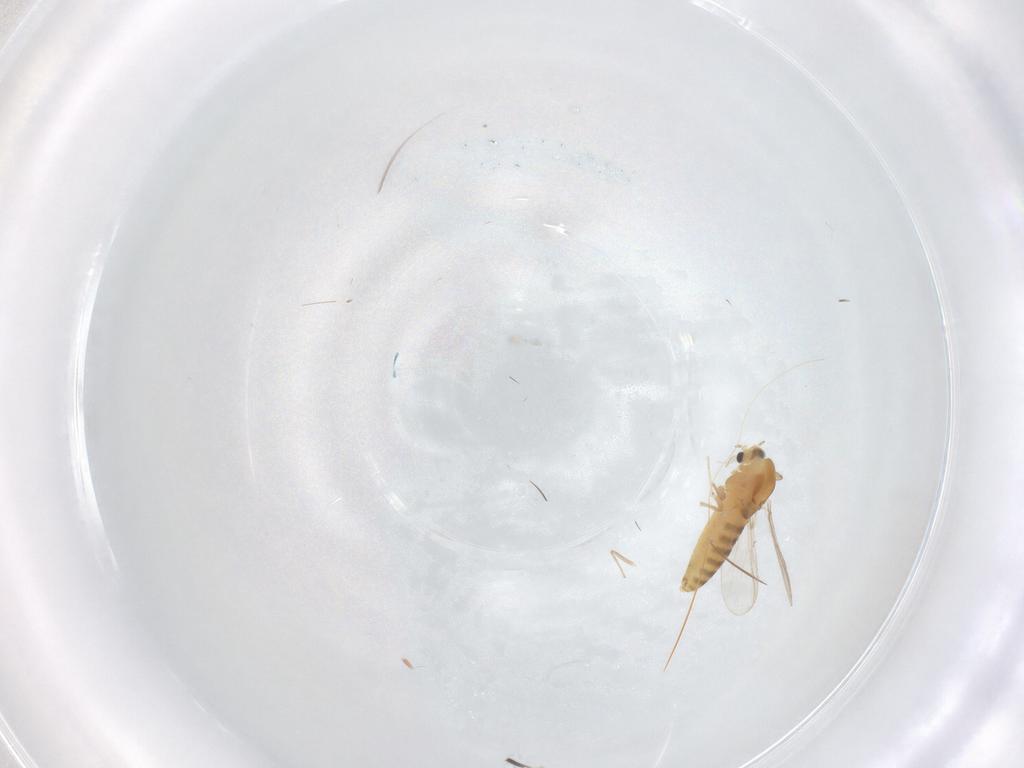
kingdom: Animalia
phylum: Arthropoda
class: Insecta
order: Diptera
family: Chironomidae
